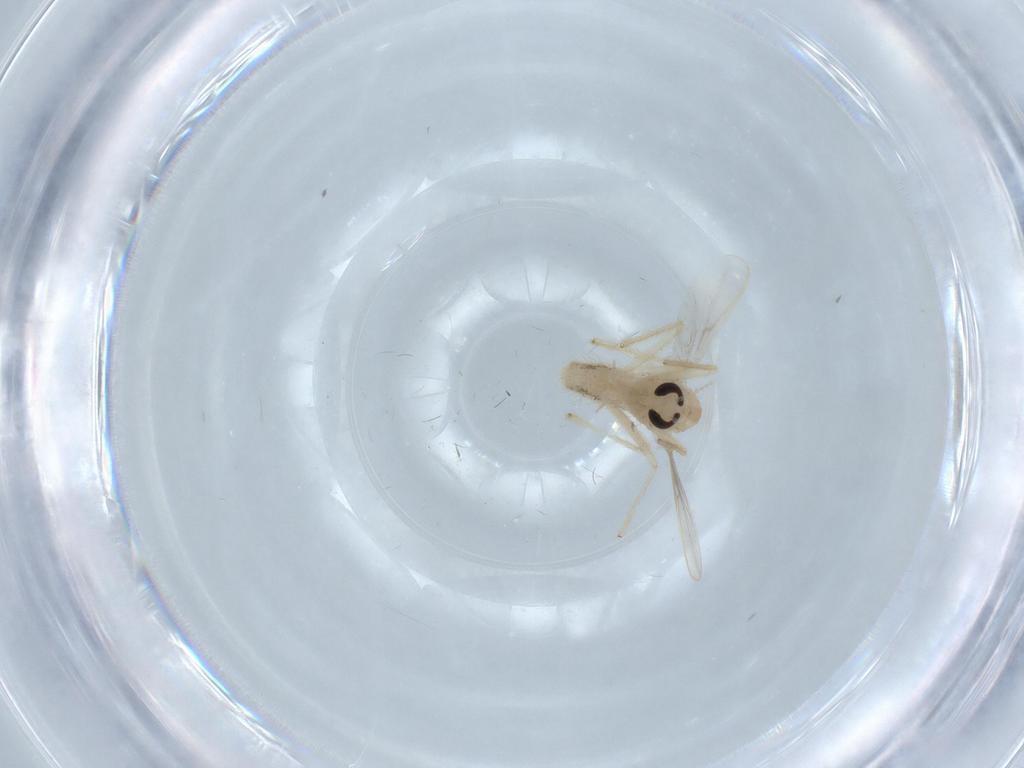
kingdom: Animalia
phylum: Arthropoda
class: Insecta
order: Diptera
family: Chironomidae
